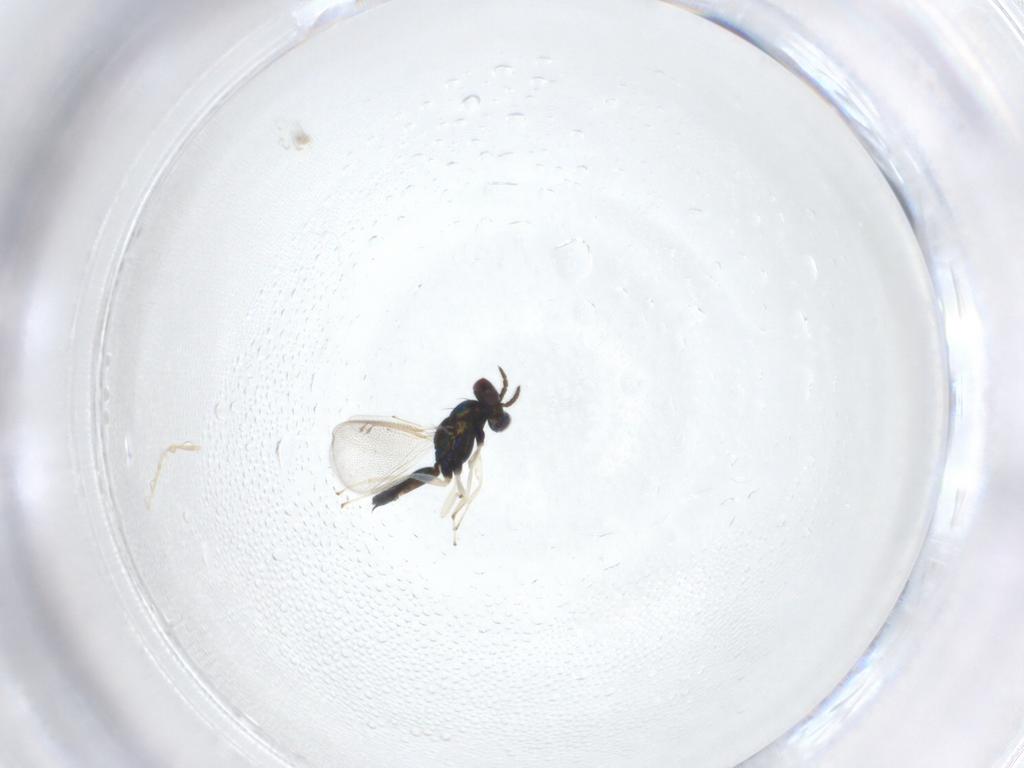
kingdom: Animalia
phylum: Arthropoda
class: Insecta
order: Hymenoptera
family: Eulophidae
